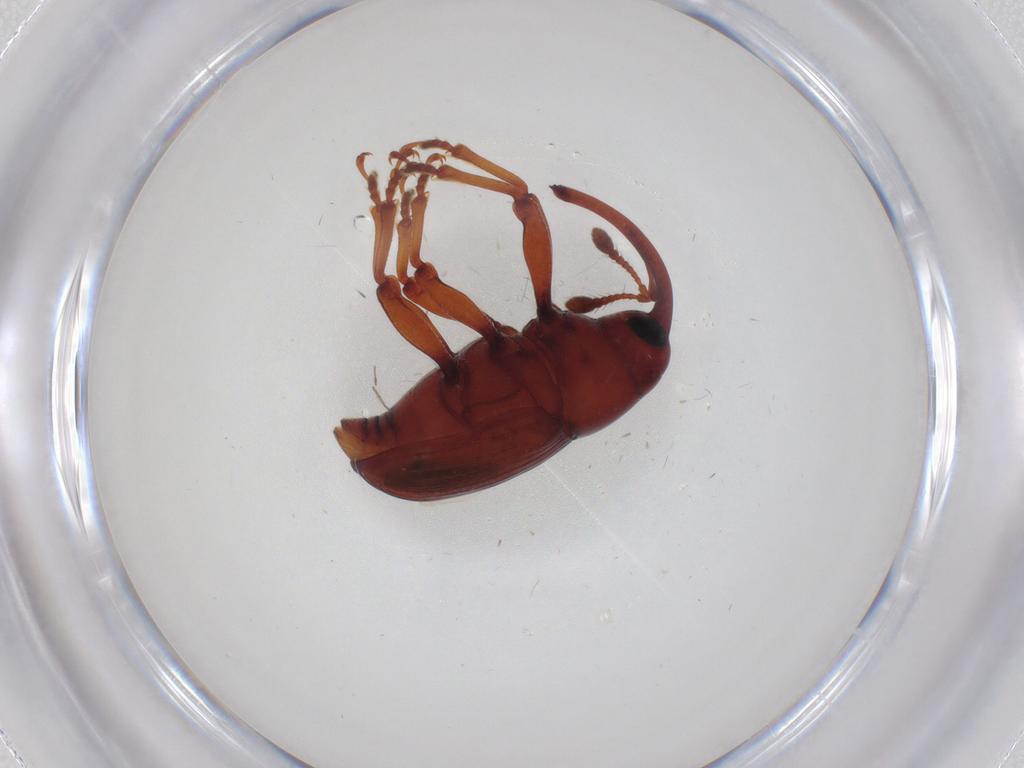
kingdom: Animalia
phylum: Arthropoda
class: Insecta
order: Coleoptera
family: Curculionidae
